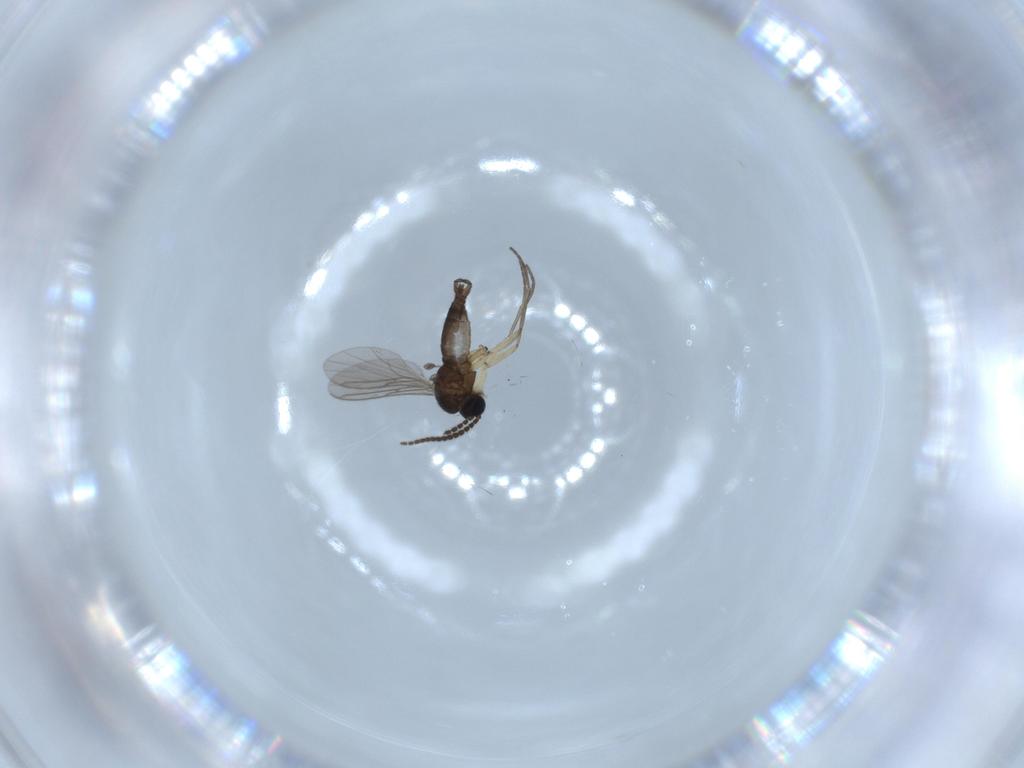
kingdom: Animalia
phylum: Arthropoda
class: Insecta
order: Diptera
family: Sciaridae
